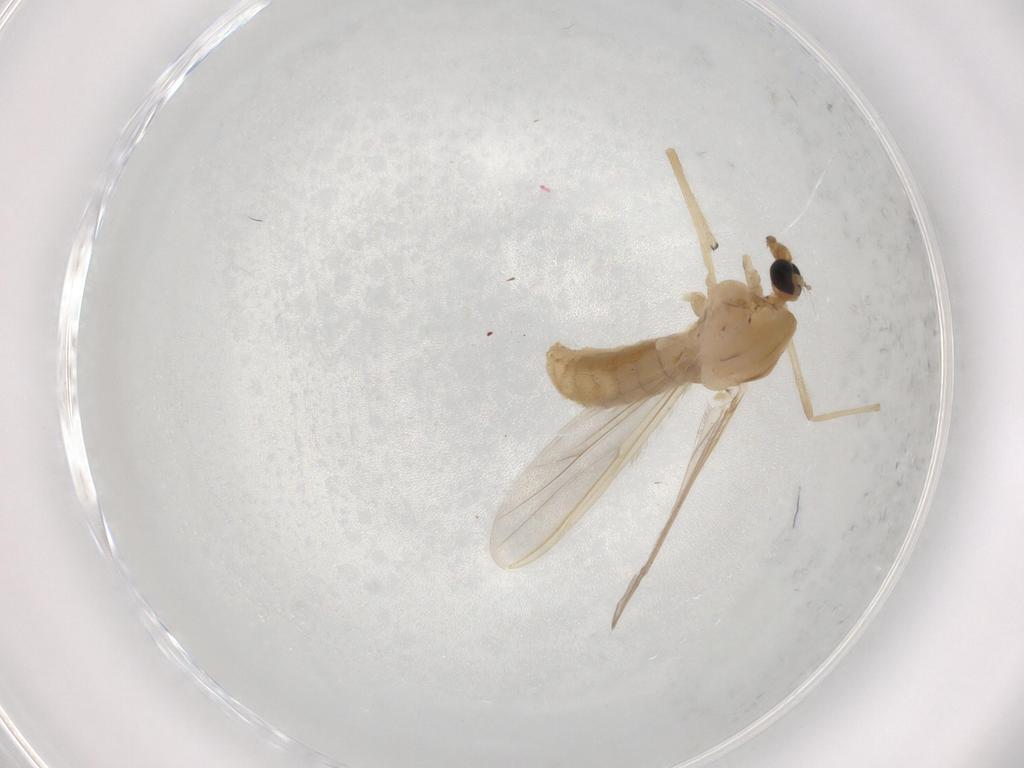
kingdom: Animalia
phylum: Arthropoda
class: Insecta
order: Diptera
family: Chironomidae
